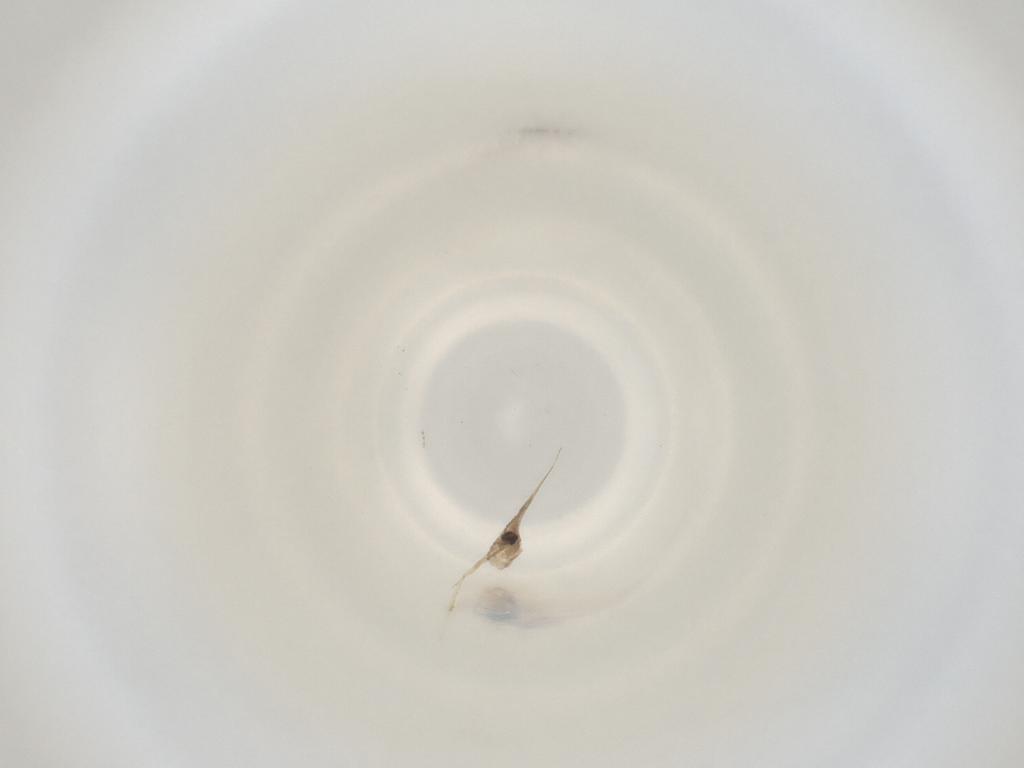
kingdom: Animalia
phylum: Arthropoda
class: Insecta
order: Diptera
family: Cecidomyiidae
